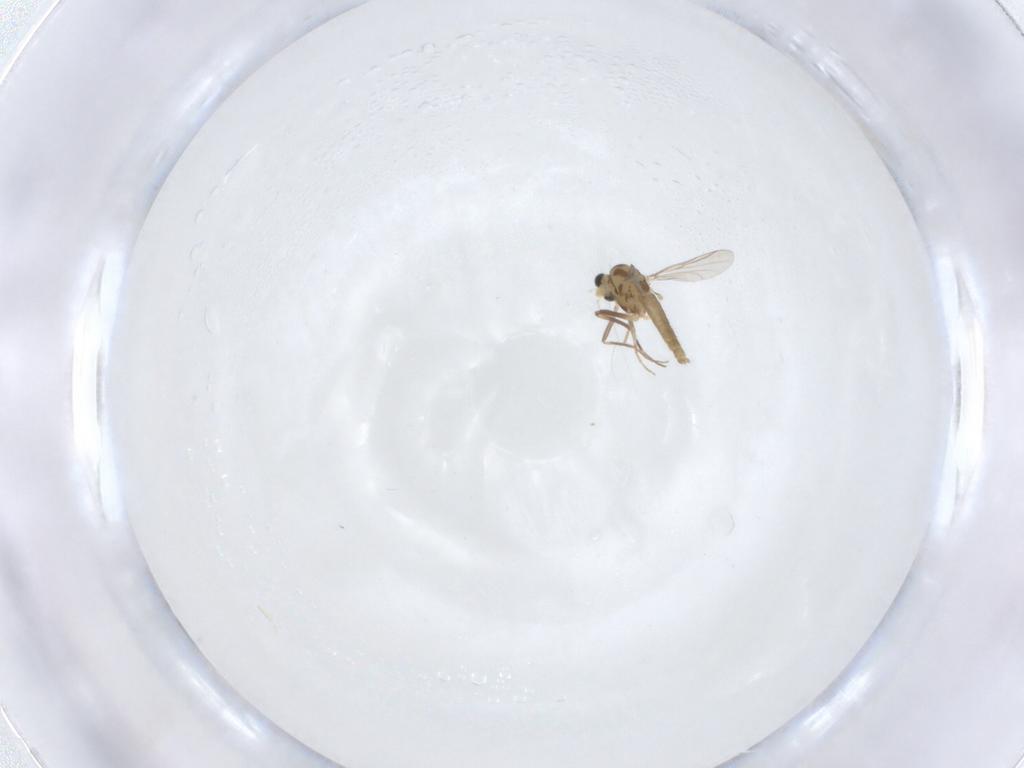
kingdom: Animalia
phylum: Arthropoda
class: Insecta
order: Diptera
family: Chironomidae
